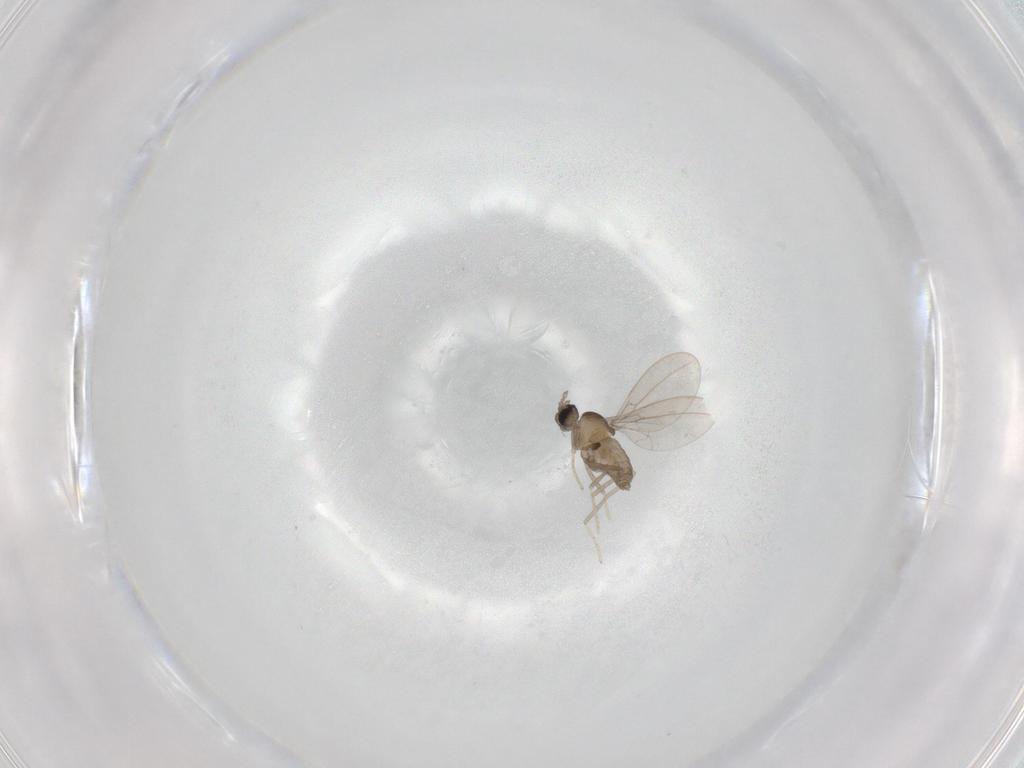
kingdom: Animalia
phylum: Arthropoda
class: Insecta
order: Diptera
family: Cecidomyiidae
